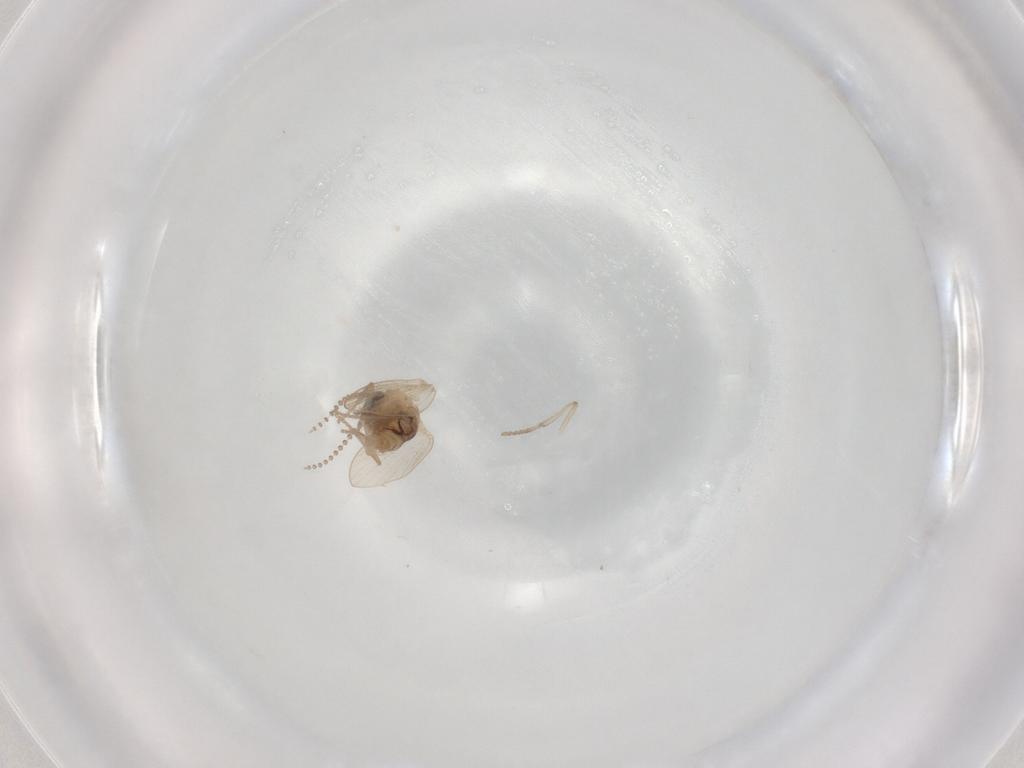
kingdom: Animalia
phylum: Arthropoda
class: Insecta
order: Diptera
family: Psychodidae
